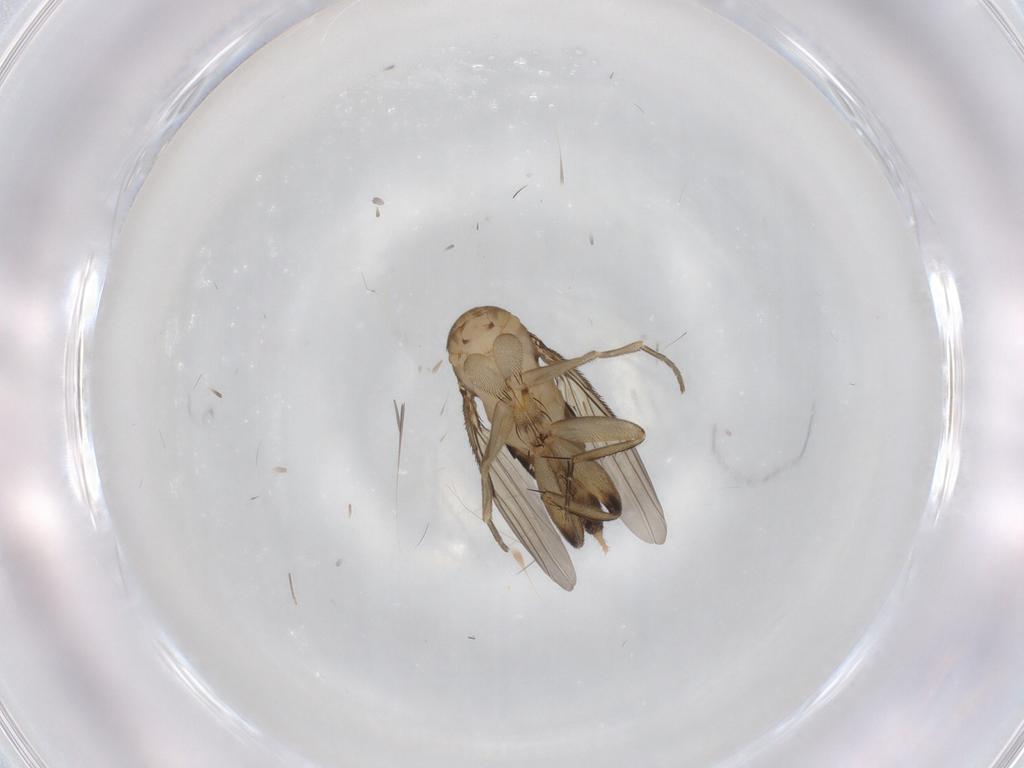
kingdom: Animalia
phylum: Arthropoda
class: Insecta
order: Diptera
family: Phoridae
